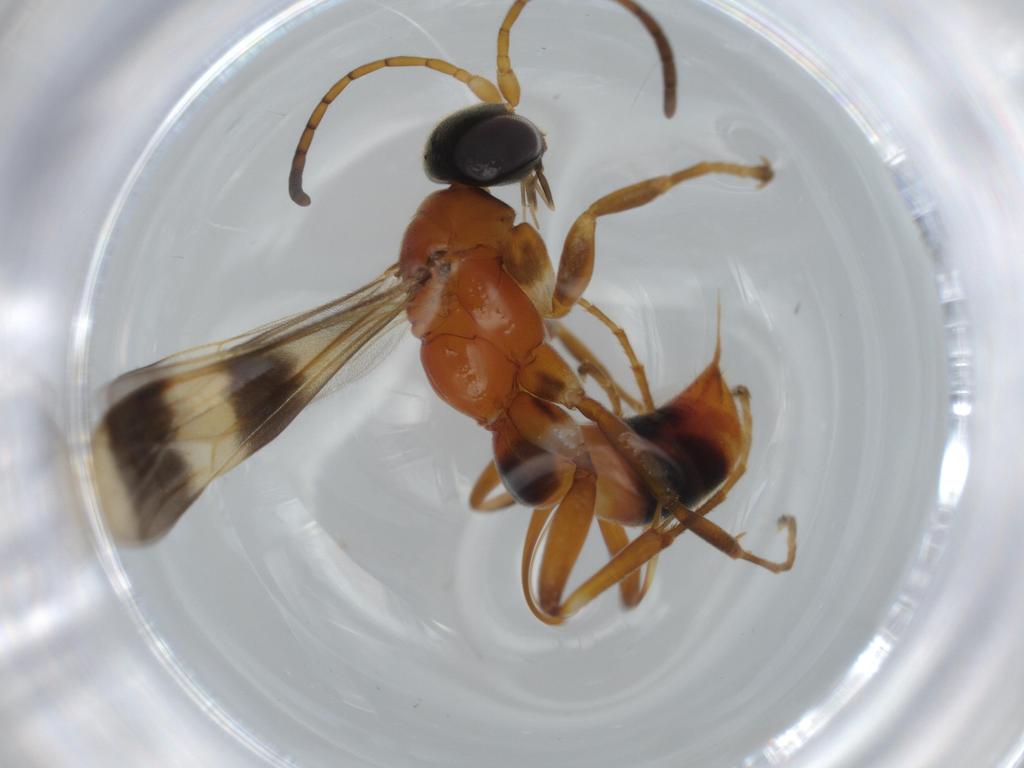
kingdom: Animalia
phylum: Arthropoda
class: Insecta
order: Hymenoptera
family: Pompilidae
